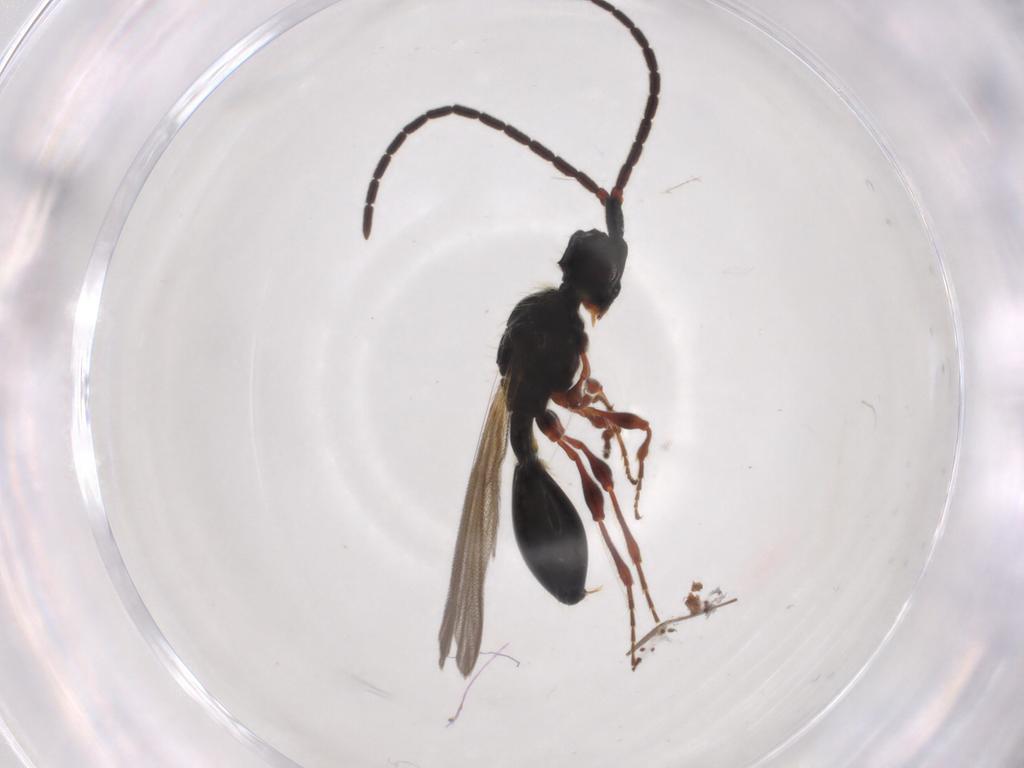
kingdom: Animalia
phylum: Arthropoda
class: Insecta
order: Hymenoptera
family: Diapriidae
